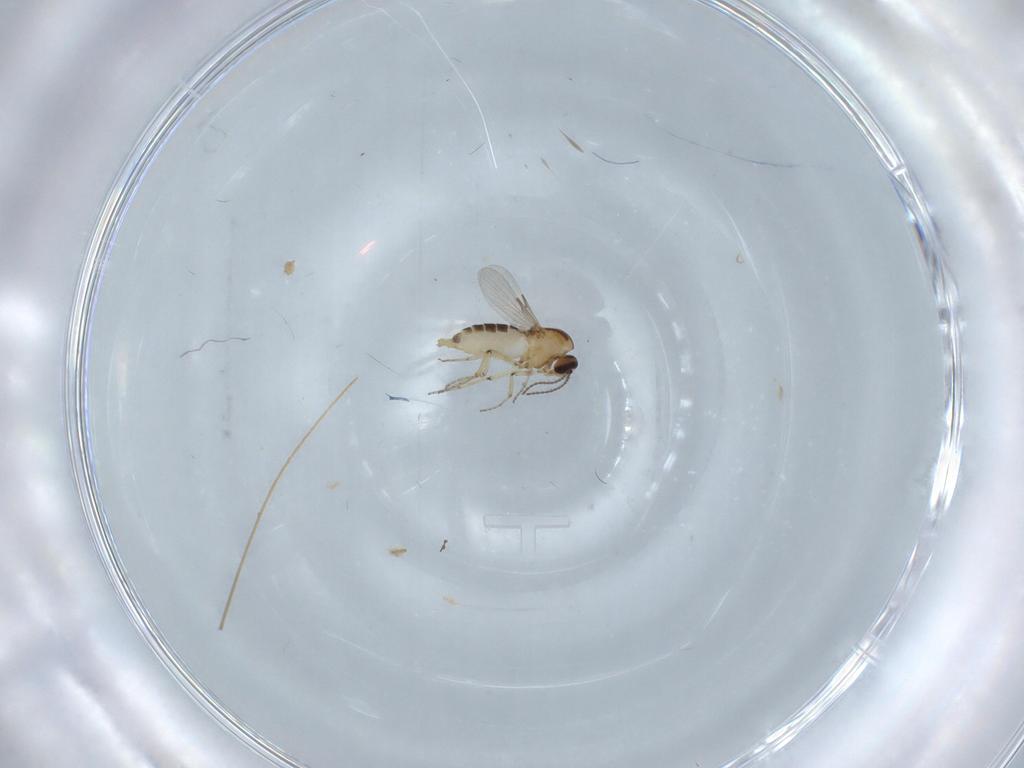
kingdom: Animalia
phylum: Arthropoda
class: Insecta
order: Diptera
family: Ceratopogonidae
